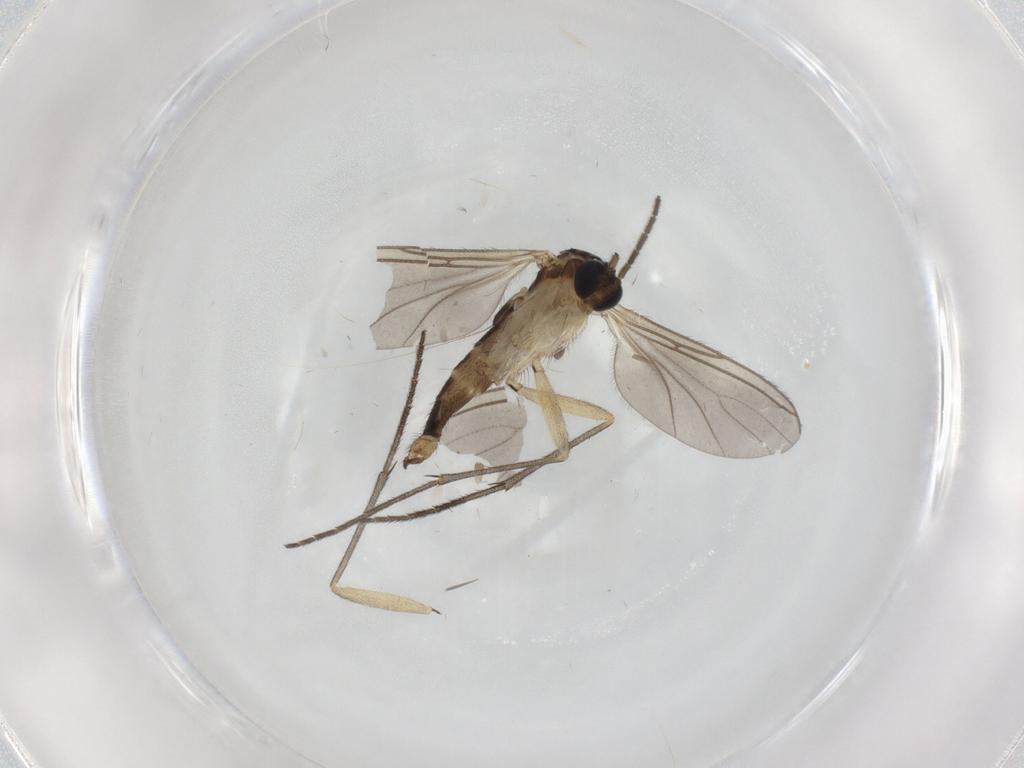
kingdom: Animalia
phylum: Arthropoda
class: Insecta
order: Diptera
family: Sciaridae
